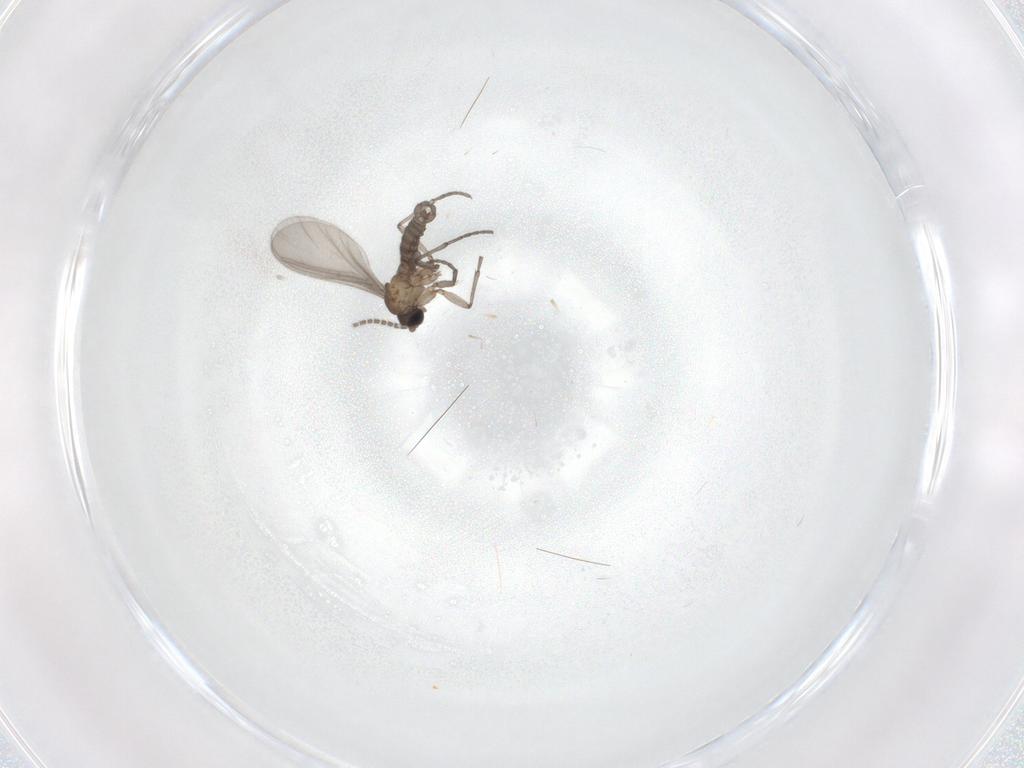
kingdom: Animalia
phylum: Arthropoda
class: Insecta
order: Diptera
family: Sciaridae
